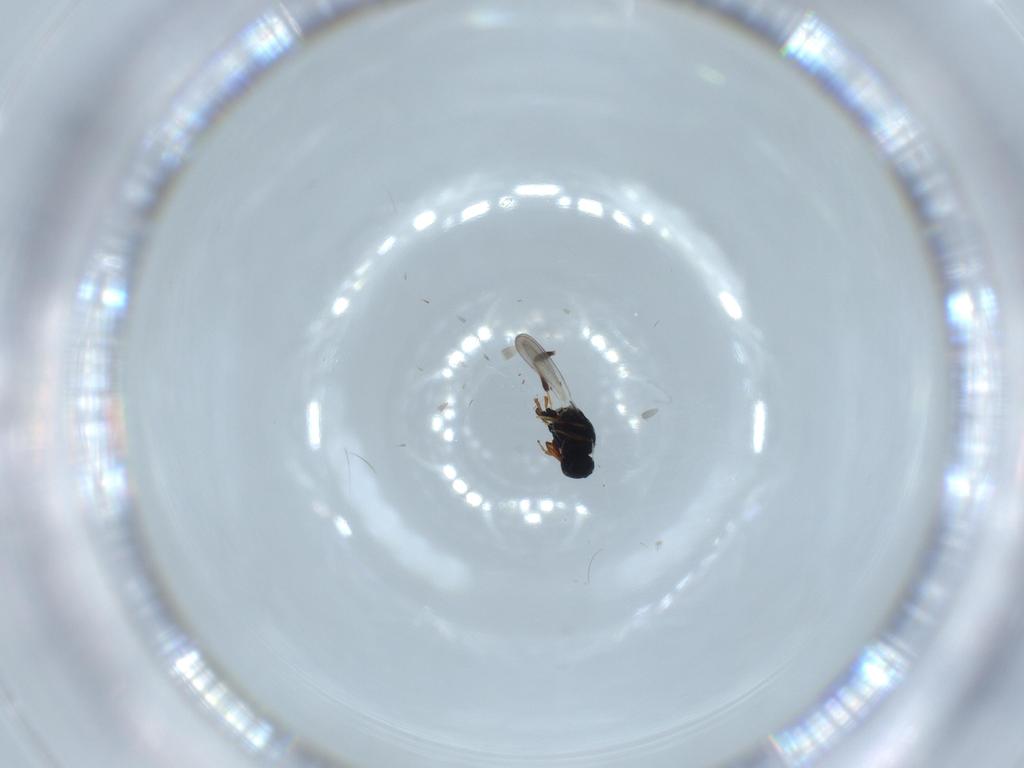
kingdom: Animalia
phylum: Arthropoda
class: Insecta
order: Hymenoptera
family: Platygastridae
